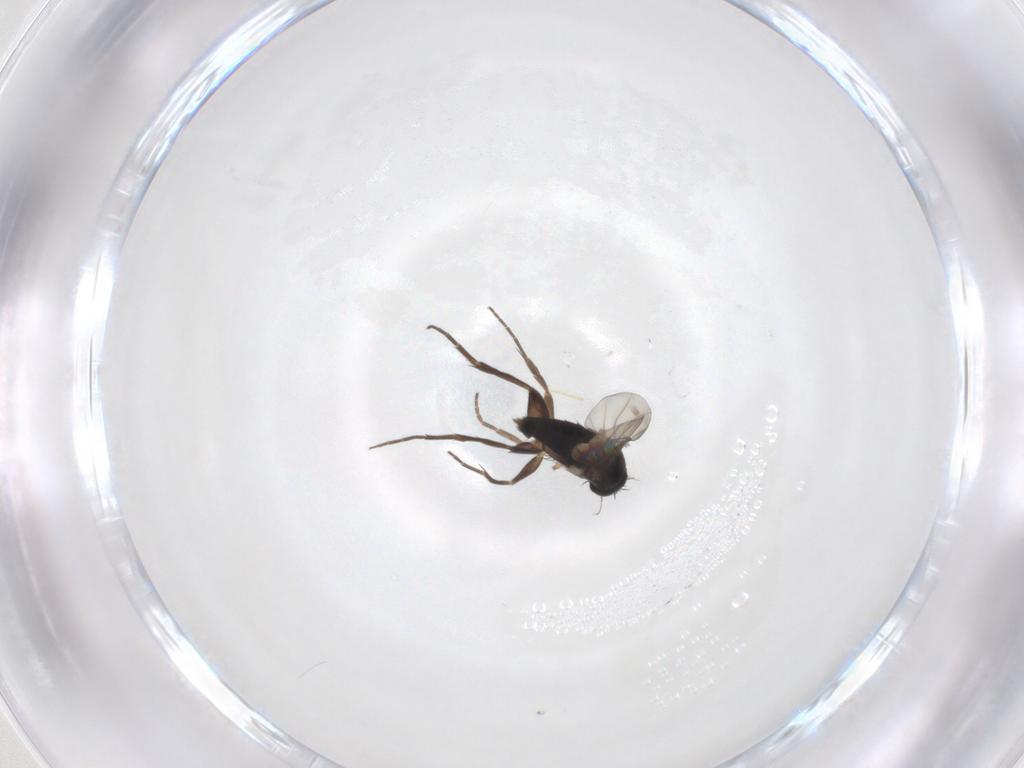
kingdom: Animalia
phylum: Arthropoda
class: Insecta
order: Diptera
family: Phoridae
